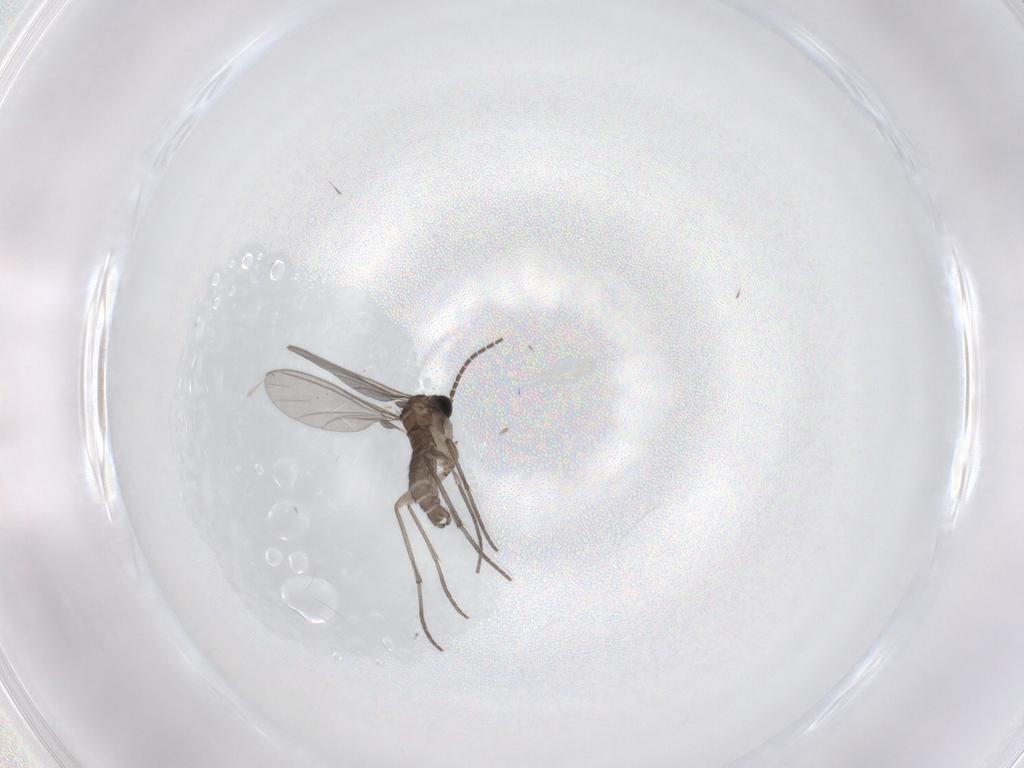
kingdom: Animalia
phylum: Arthropoda
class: Insecta
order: Diptera
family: Sciaridae
